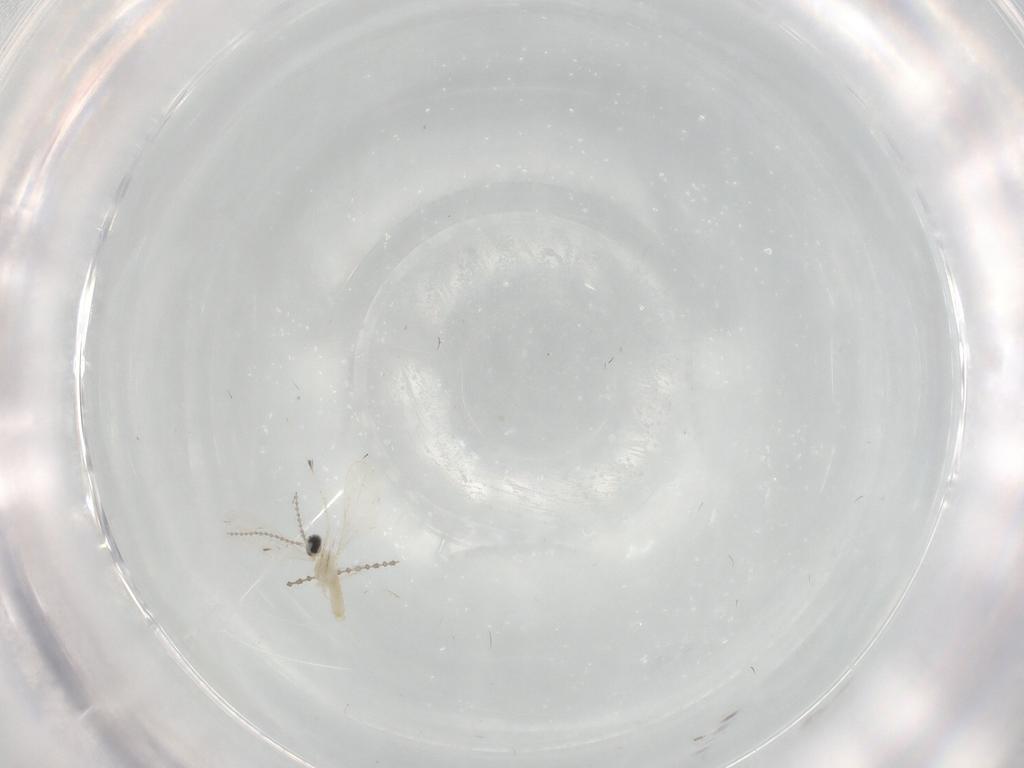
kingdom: Animalia
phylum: Arthropoda
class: Insecta
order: Diptera
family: Cecidomyiidae
